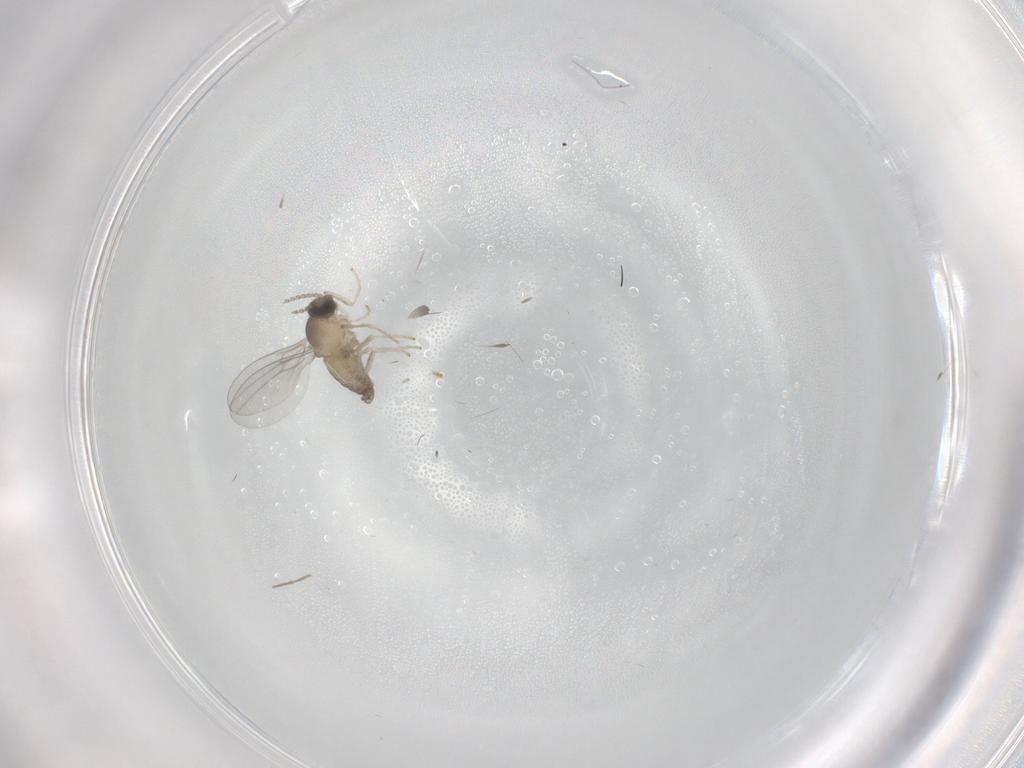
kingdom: Animalia
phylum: Arthropoda
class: Insecta
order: Diptera
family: Cecidomyiidae
